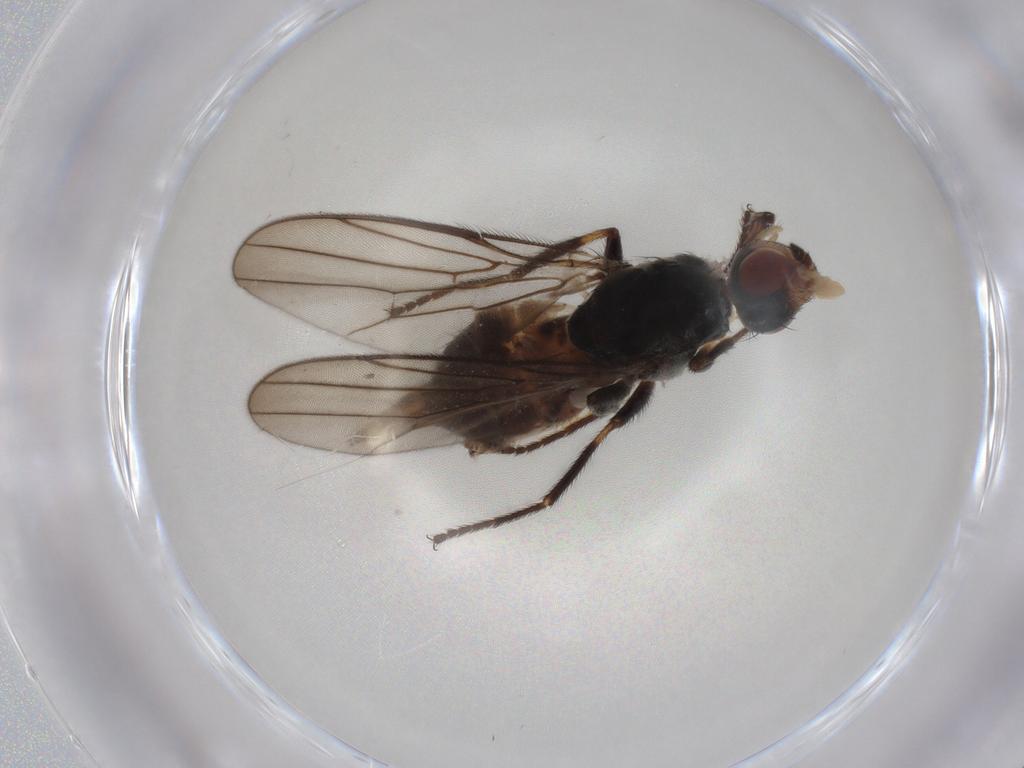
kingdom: Animalia
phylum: Arthropoda
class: Insecta
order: Diptera
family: Chloropidae
